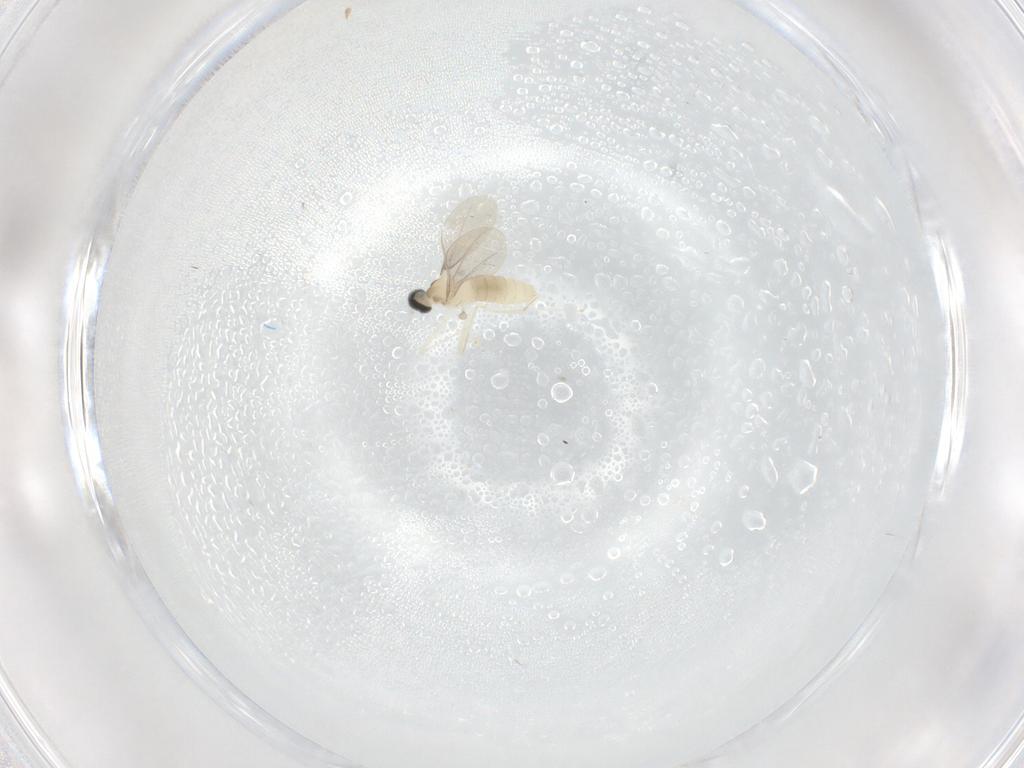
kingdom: Animalia
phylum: Arthropoda
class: Insecta
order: Diptera
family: Cecidomyiidae
